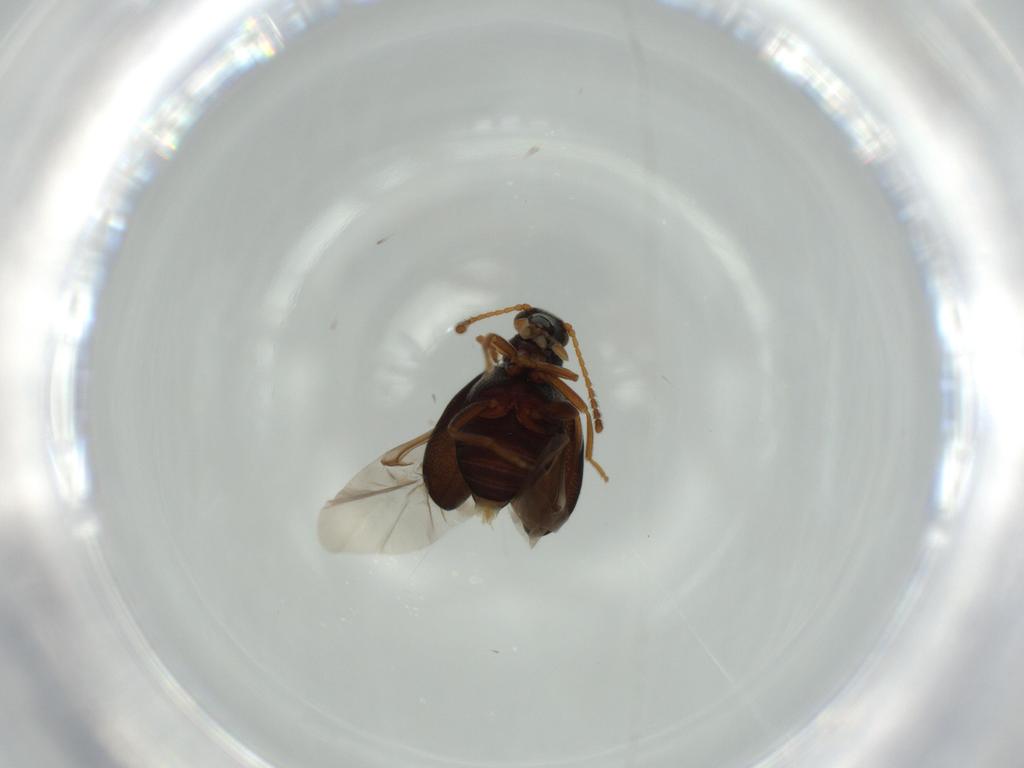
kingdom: Animalia
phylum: Arthropoda
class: Insecta
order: Coleoptera
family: Aderidae
